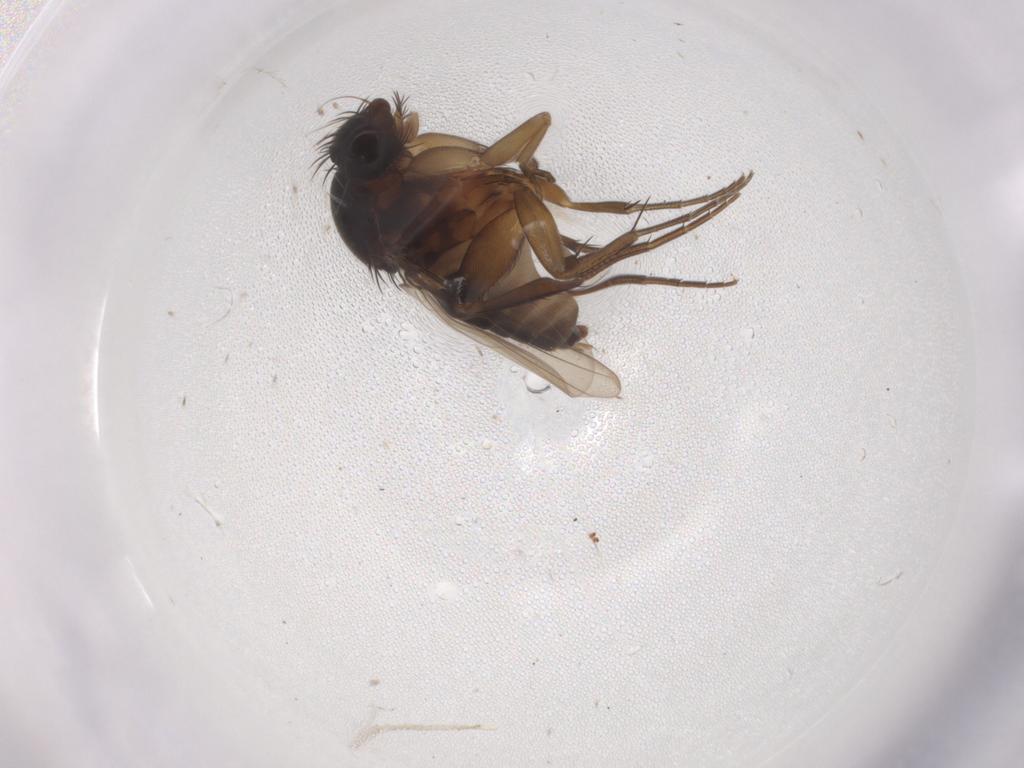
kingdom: Animalia
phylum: Arthropoda
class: Insecta
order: Diptera
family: Phoridae
